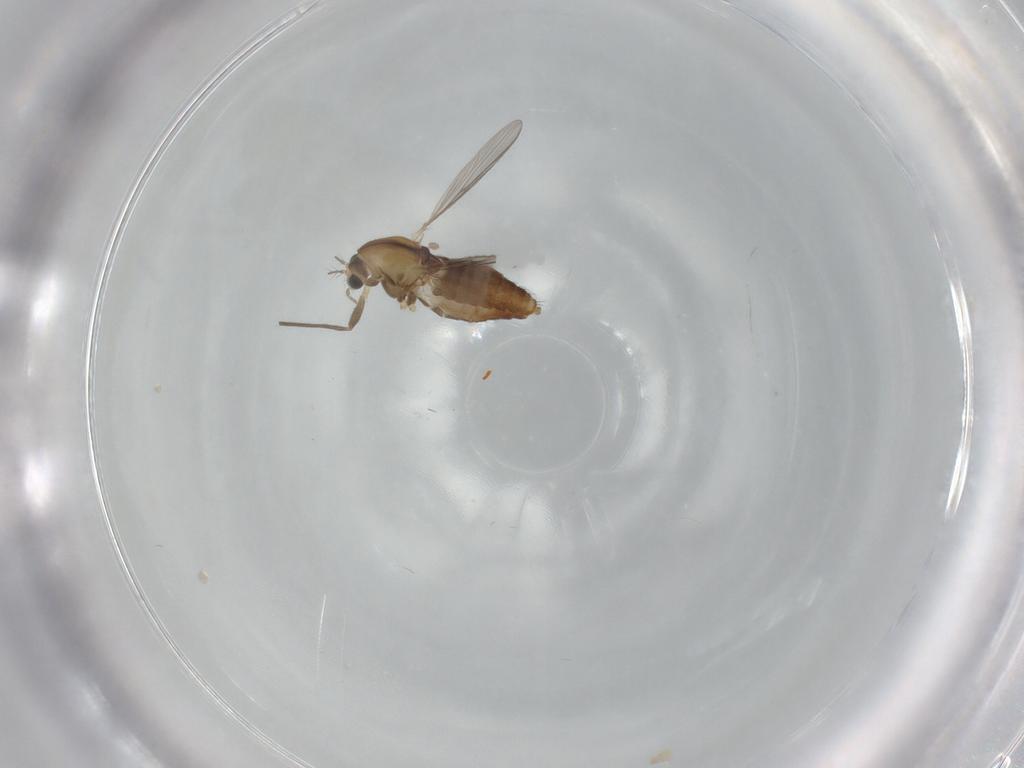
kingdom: Animalia
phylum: Arthropoda
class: Insecta
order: Diptera
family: Chironomidae
